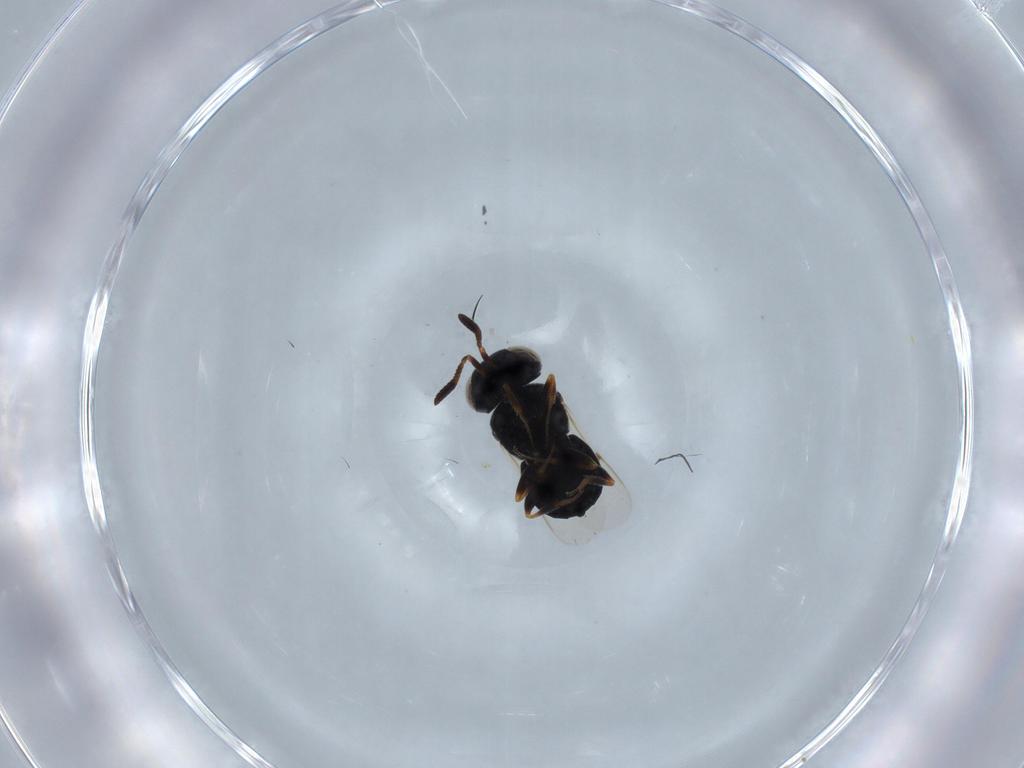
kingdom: Animalia
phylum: Arthropoda
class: Insecta
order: Hymenoptera
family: Scelionidae
